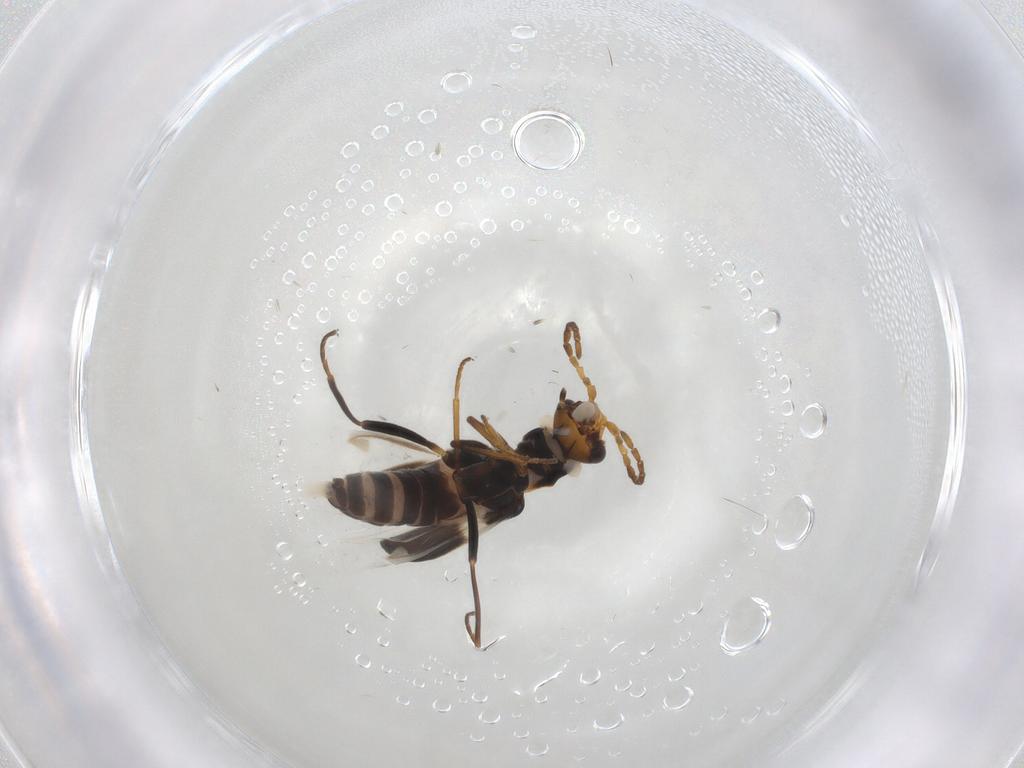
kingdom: Animalia
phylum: Arthropoda
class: Insecta
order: Coleoptera
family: Melyridae
